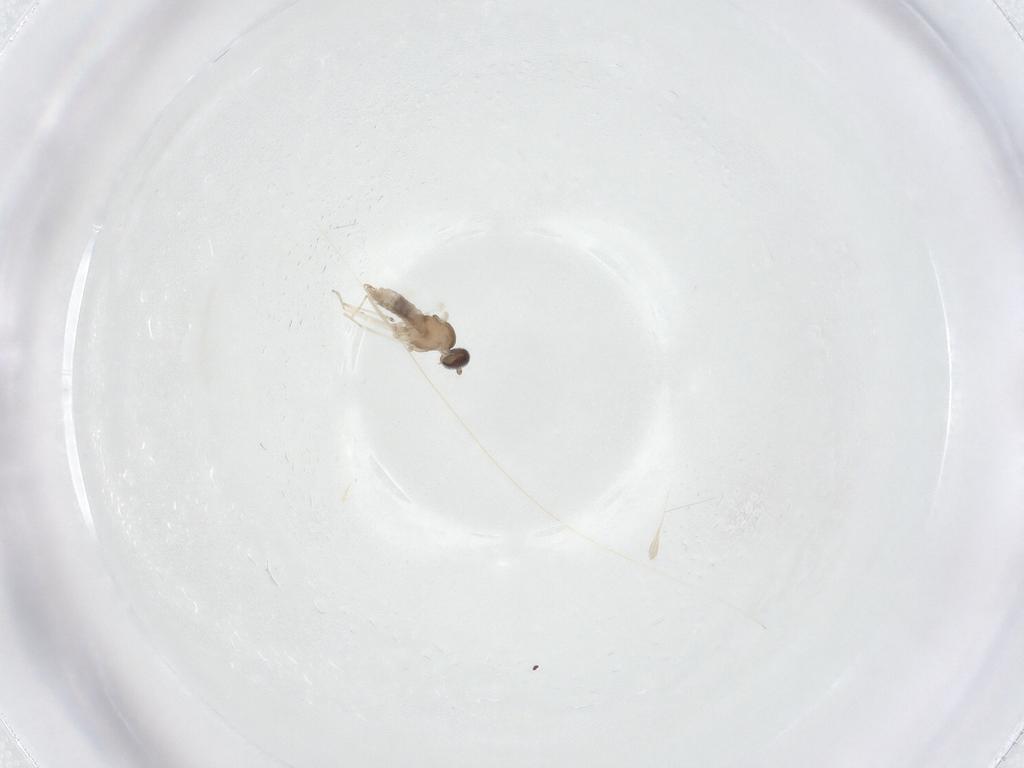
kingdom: Animalia
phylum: Arthropoda
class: Insecta
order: Diptera
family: Cecidomyiidae
